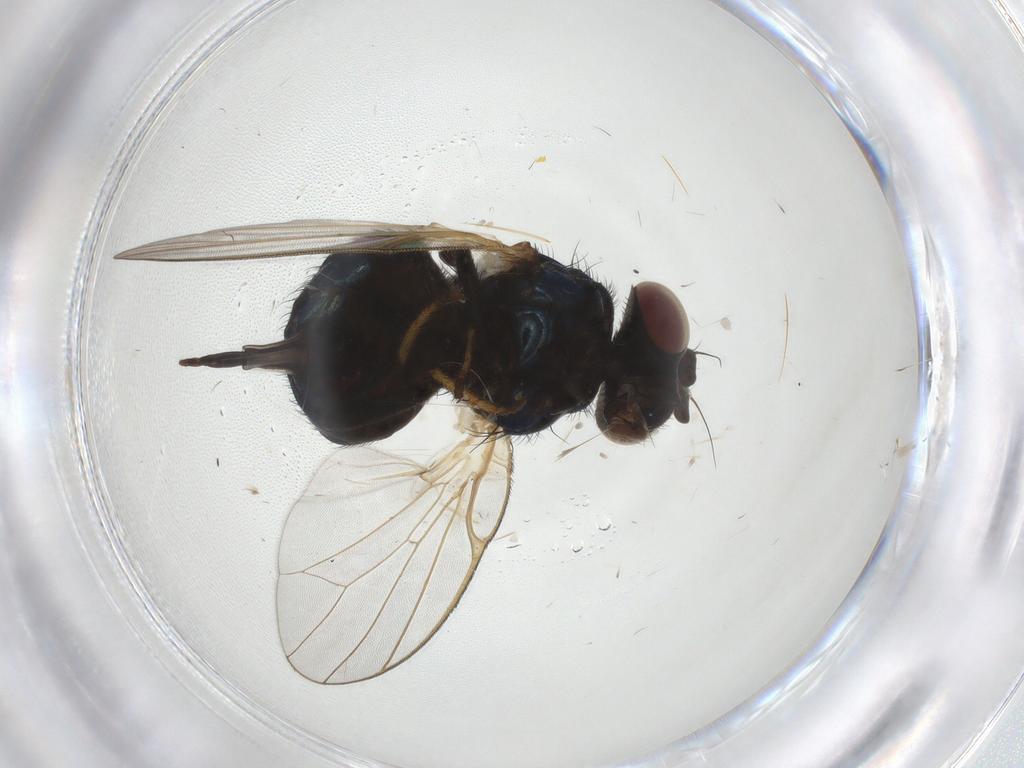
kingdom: Animalia
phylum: Arthropoda
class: Insecta
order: Diptera
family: Lonchaeidae
